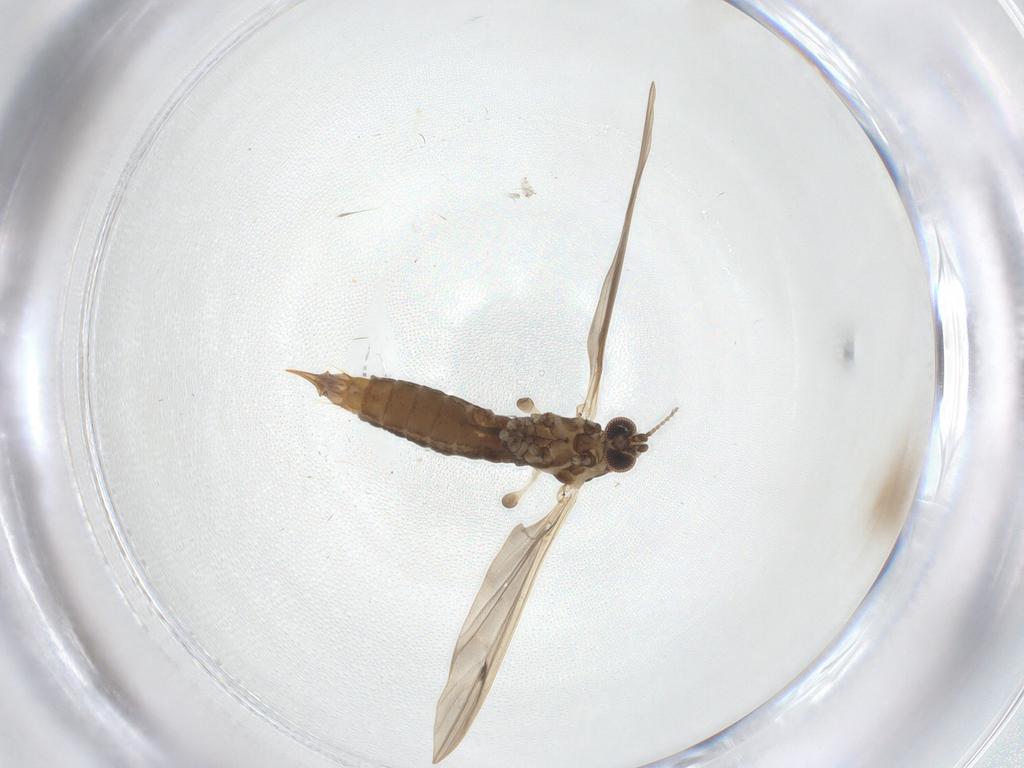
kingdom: Animalia
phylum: Arthropoda
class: Insecta
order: Diptera
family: Limoniidae
